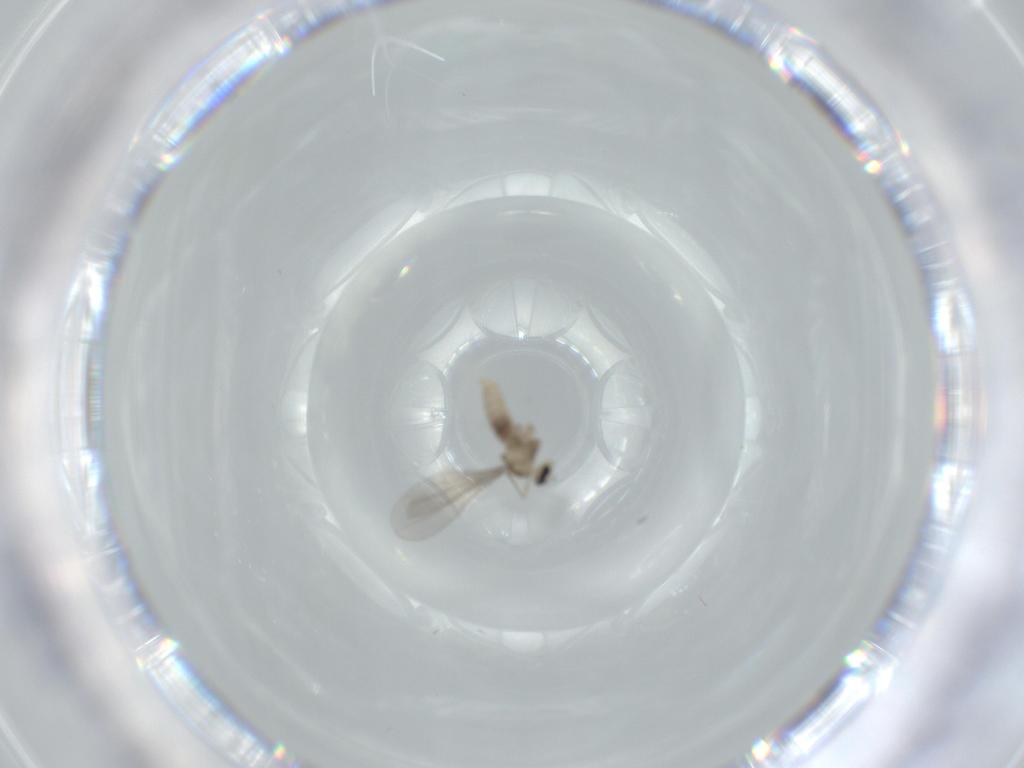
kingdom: Animalia
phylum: Arthropoda
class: Insecta
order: Diptera
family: Cecidomyiidae
